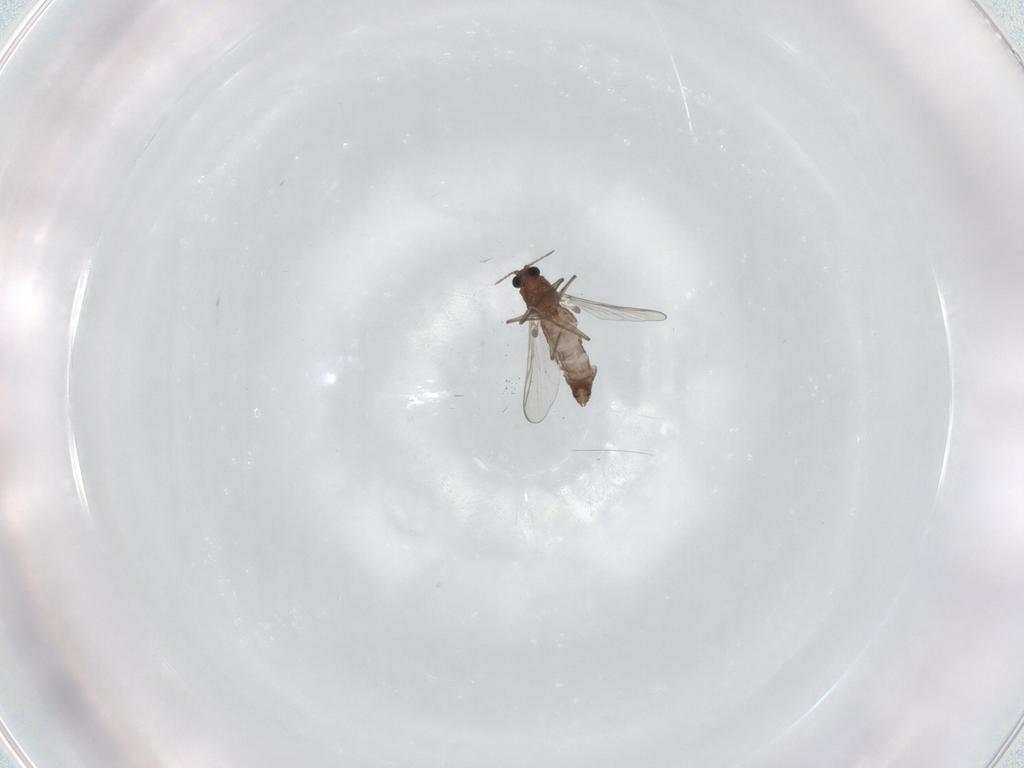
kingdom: Animalia
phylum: Arthropoda
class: Insecta
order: Diptera
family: Chironomidae
